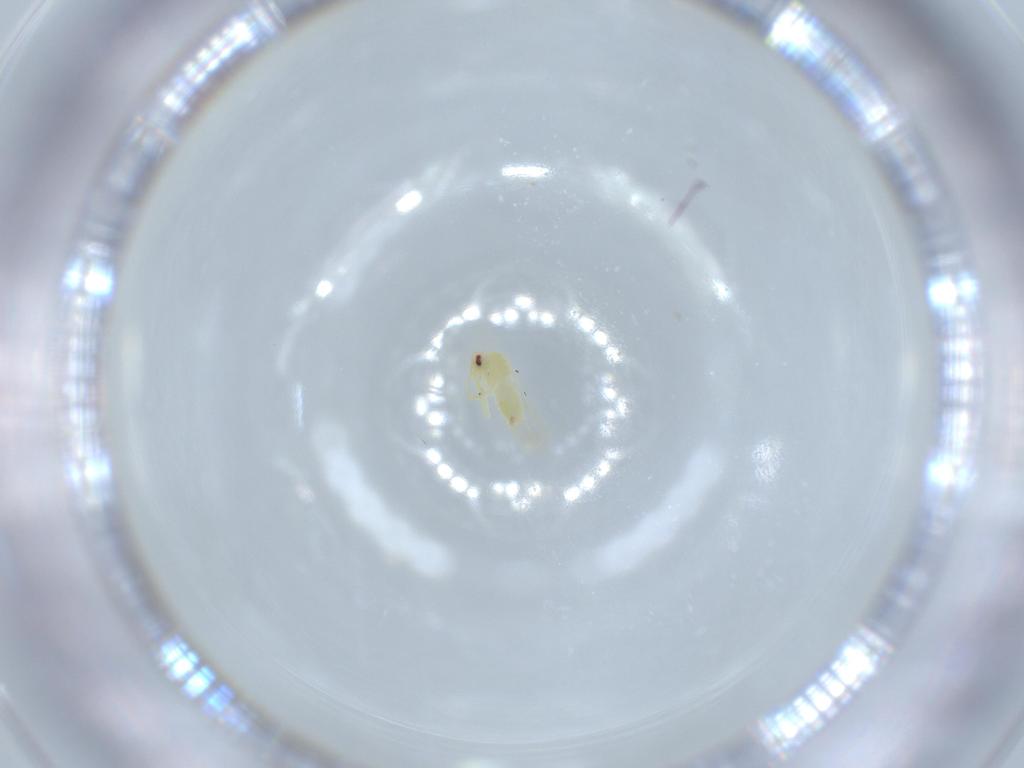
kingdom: Animalia
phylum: Arthropoda
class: Insecta
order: Hemiptera
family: Aleyrodidae
